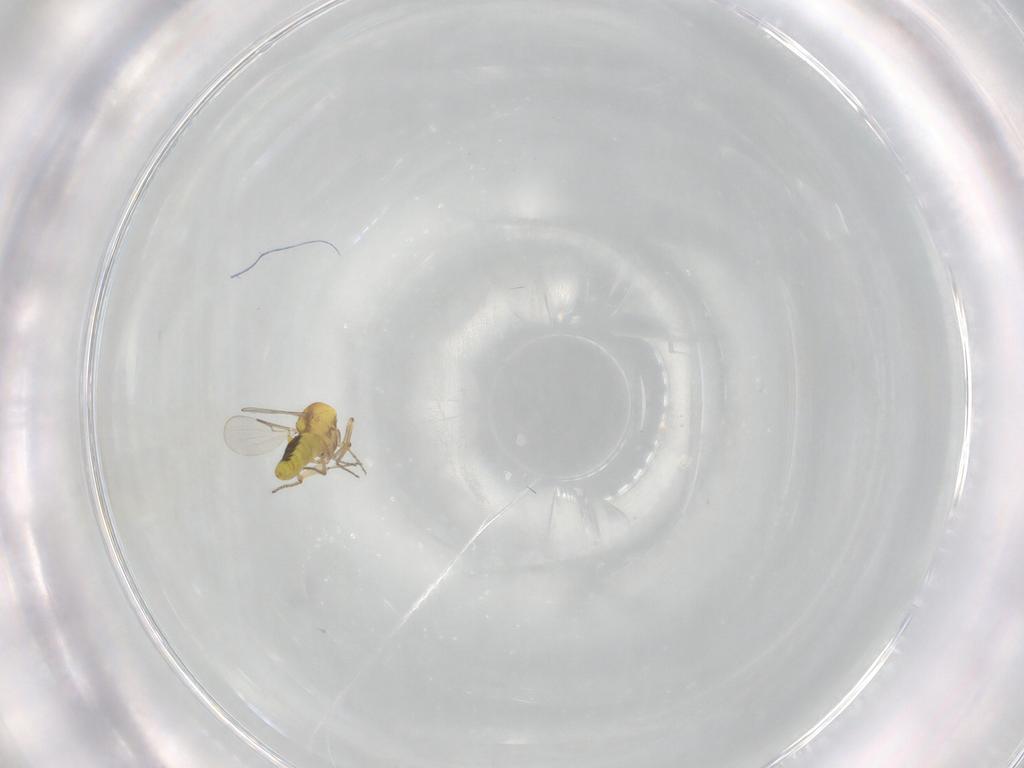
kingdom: Animalia
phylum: Arthropoda
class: Insecta
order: Diptera
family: Ceratopogonidae
